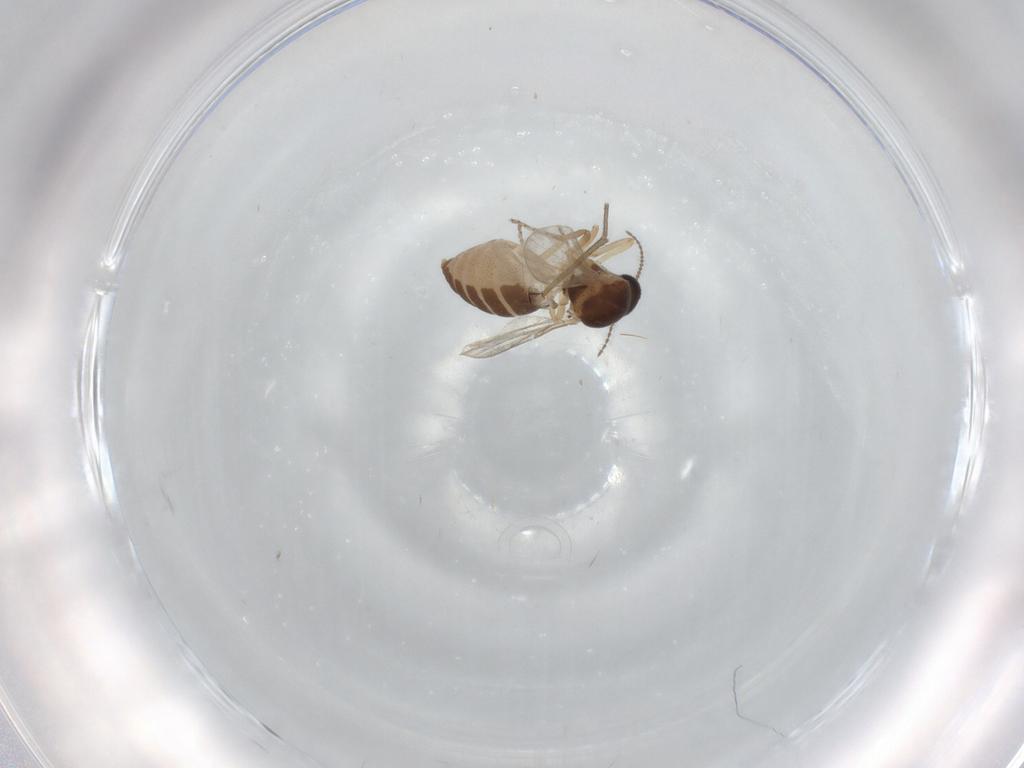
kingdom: Animalia
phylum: Arthropoda
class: Insecta
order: Diptera
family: Ceratopogonidae
